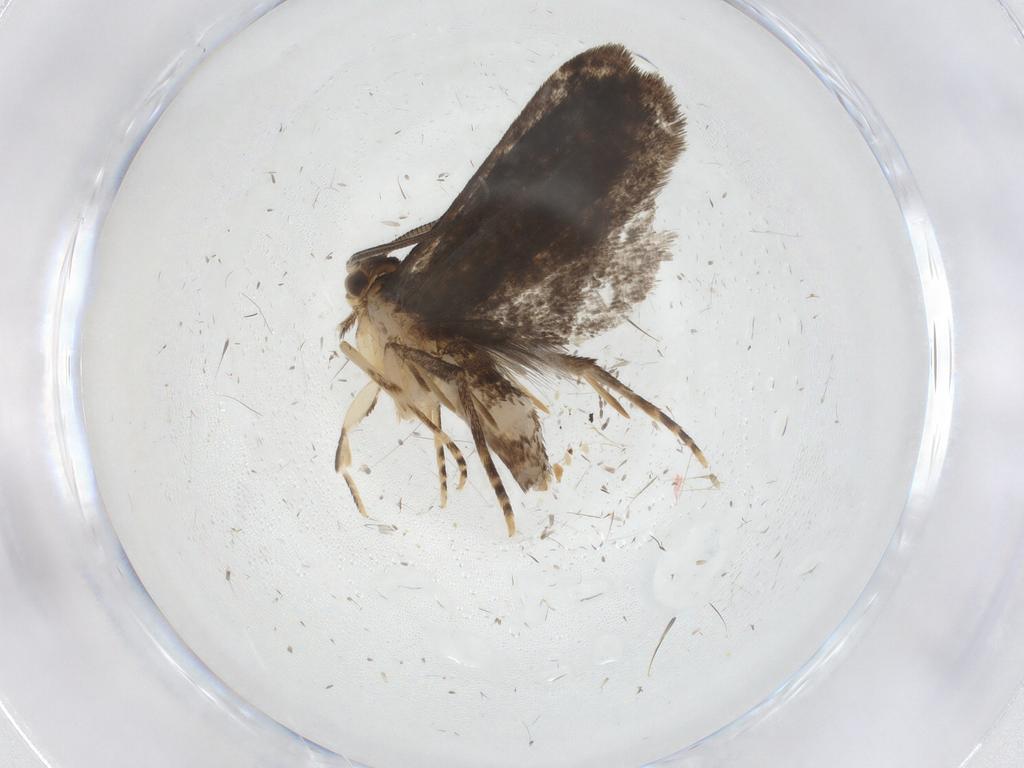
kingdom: Animalia
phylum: Arthropoda
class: Insecta
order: Lepidoptera
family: Dryadaulidae
